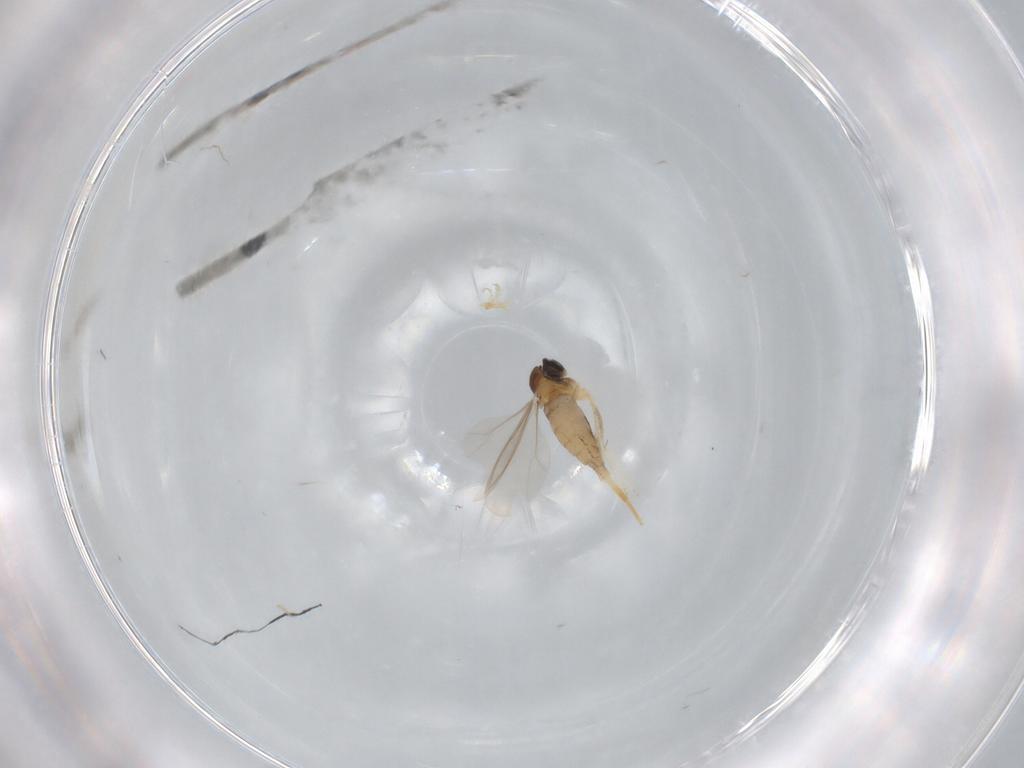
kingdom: Animalia
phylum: Arthropoda
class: Insecta
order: Diptera
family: Cecidomyiidae
